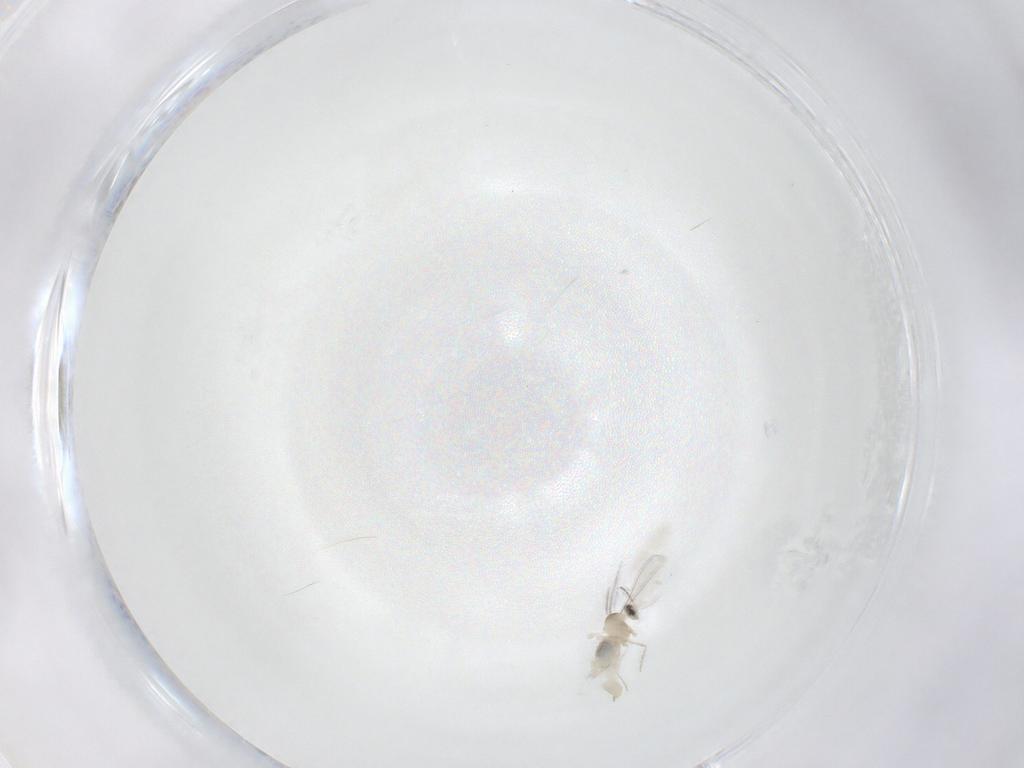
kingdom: Animalia
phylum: Arthropoda
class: Insecta
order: Diptera
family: Cecidomyiidae
